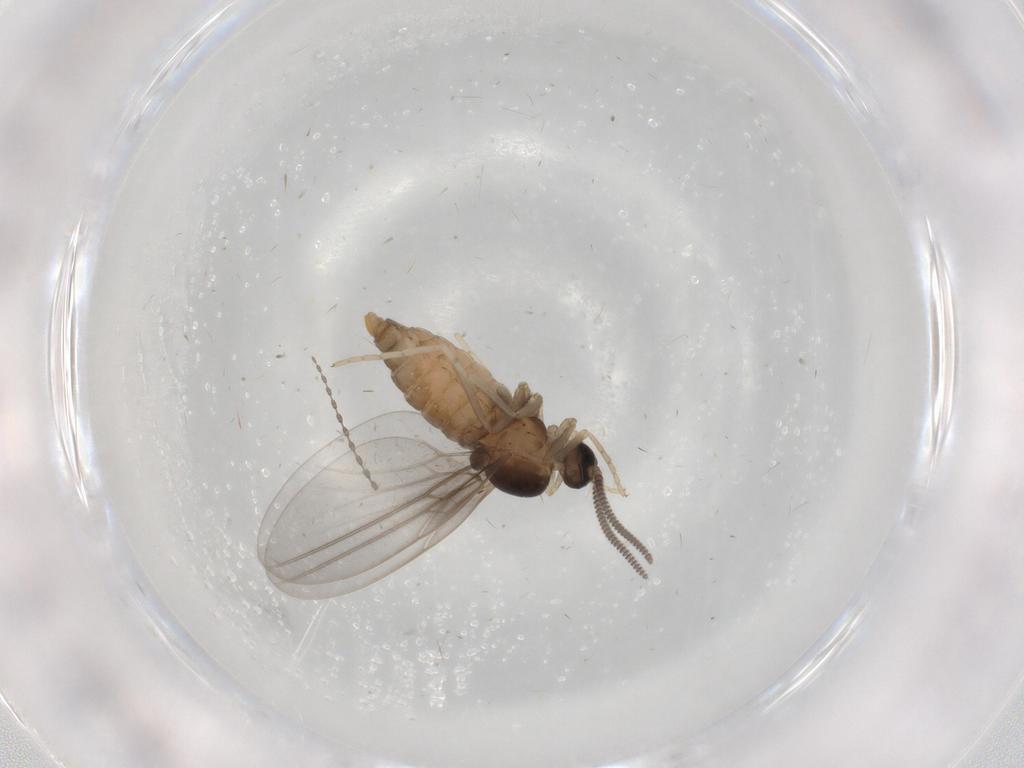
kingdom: Animalia
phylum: Arthropoda
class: Insecta
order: Diptera
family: Cecidomyiidae
